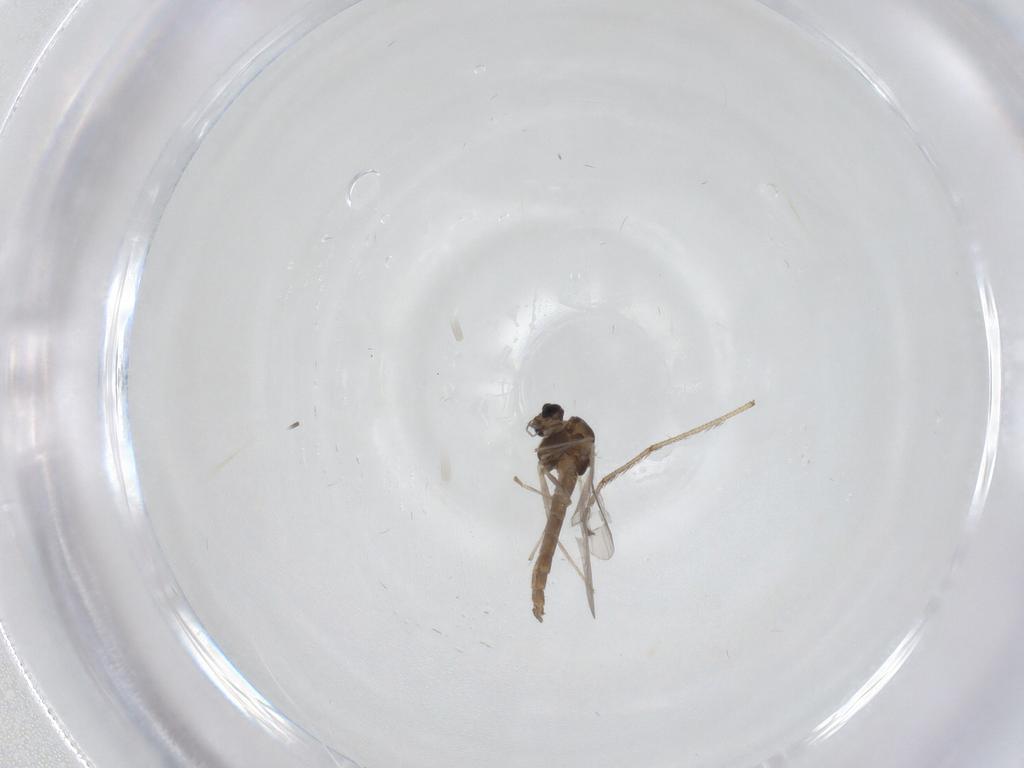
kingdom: Animalia
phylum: Arthropoda
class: Insecta
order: Diptera
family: Chironomidae
